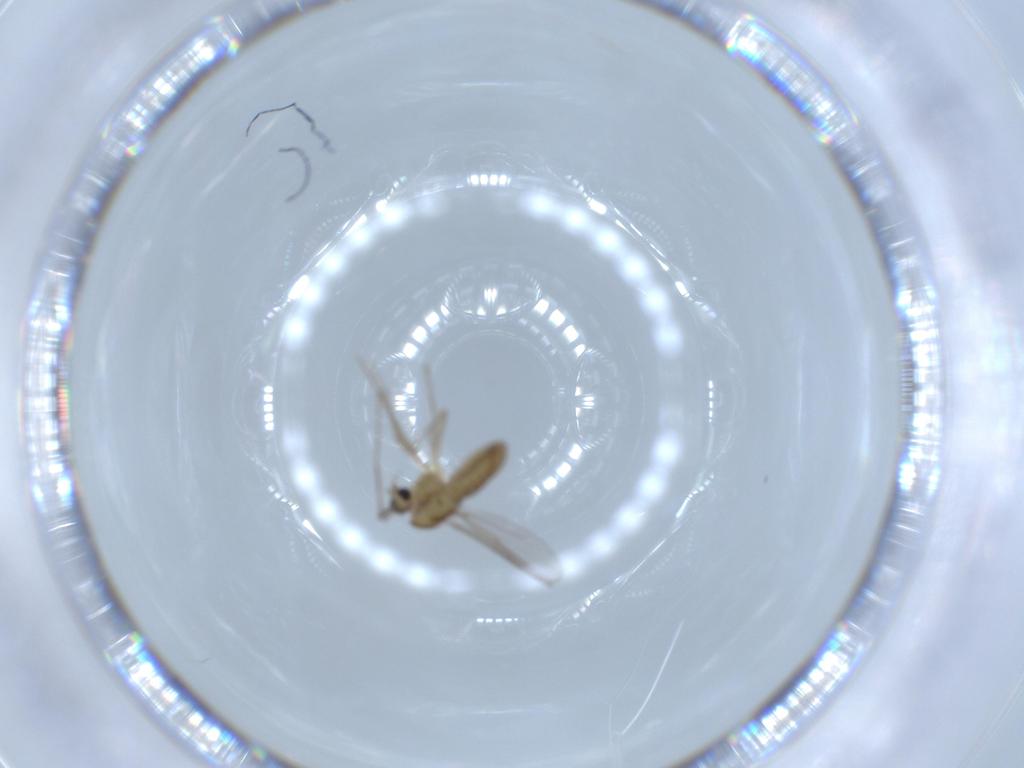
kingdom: Animalia
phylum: Arthropoda
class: Insecta
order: Diptera
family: Chironomidae
